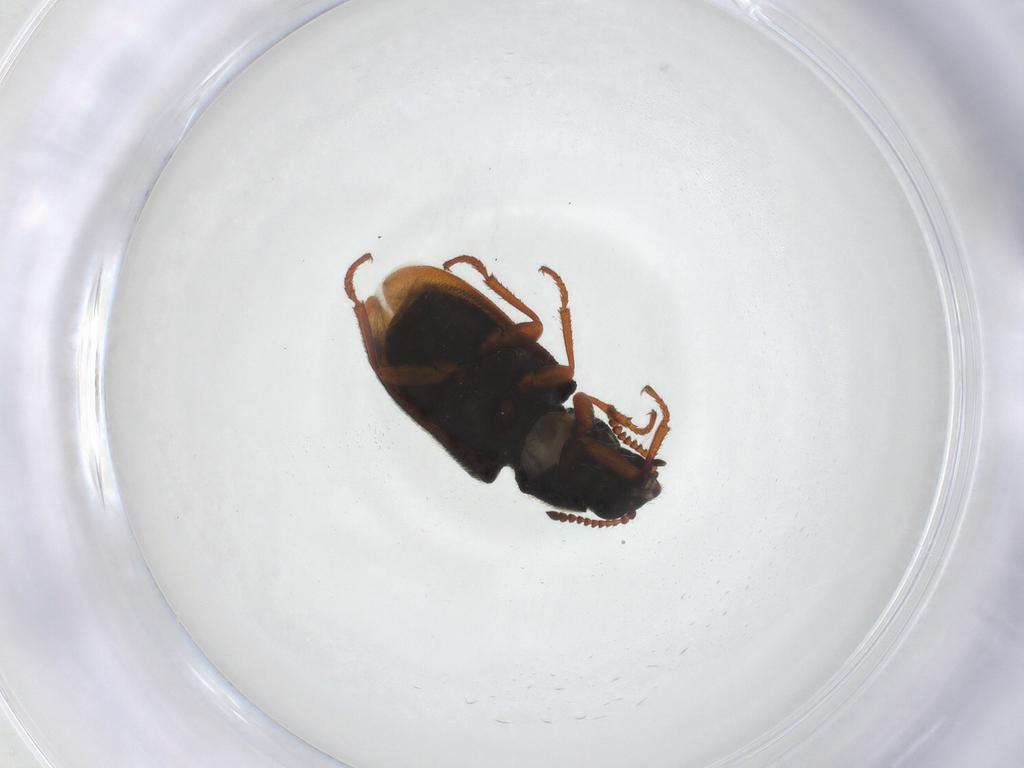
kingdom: Animalia
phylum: Arthropoda
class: Insecta
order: Coleoptera
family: Melyridae
